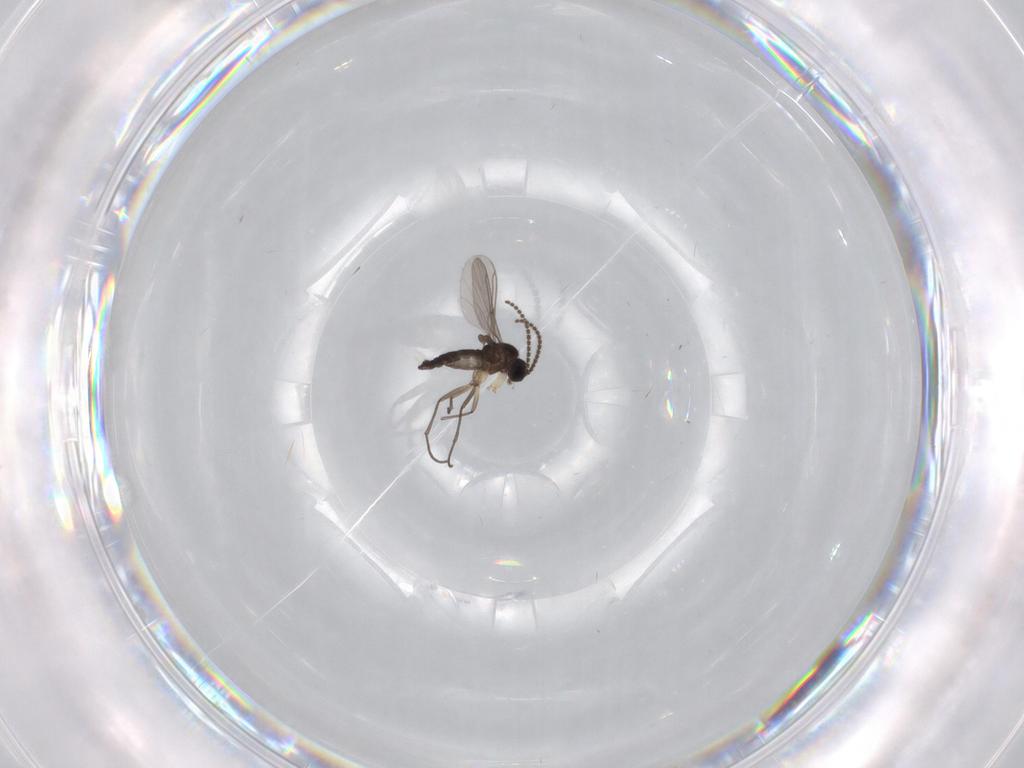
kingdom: Animalia
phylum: Arthropoda
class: Insecta
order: Diptera
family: Sciaridae
